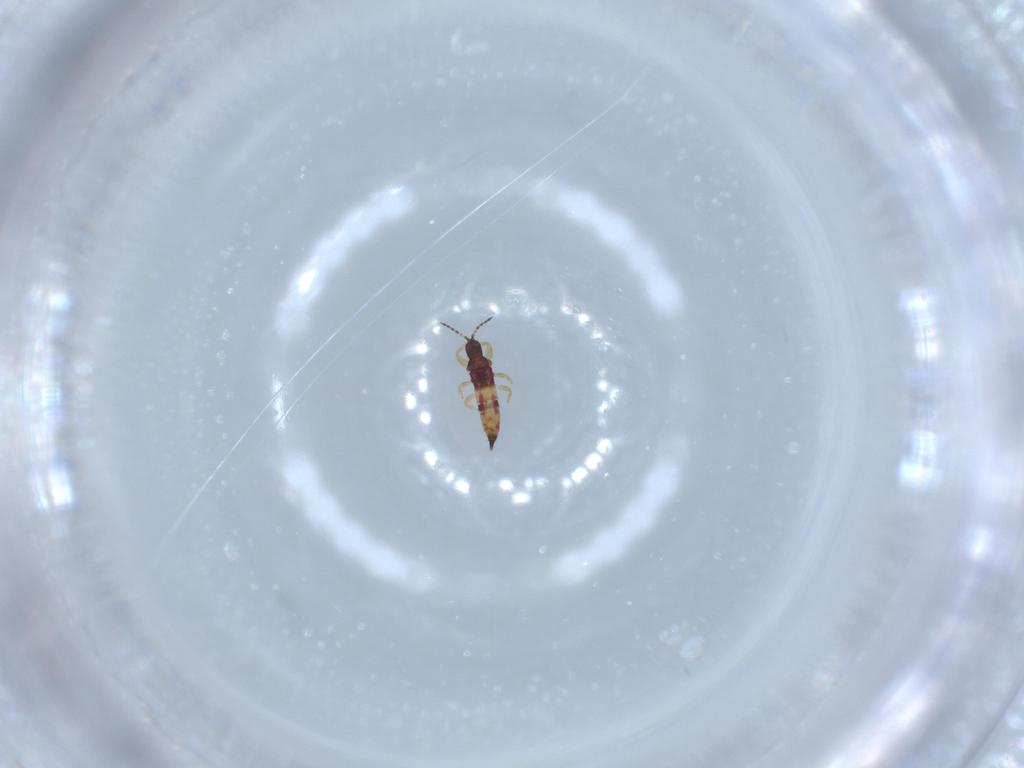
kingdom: Animalia
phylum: Arthropoda
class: Insecta
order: Thysanoptera
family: Phlaeothripidae
